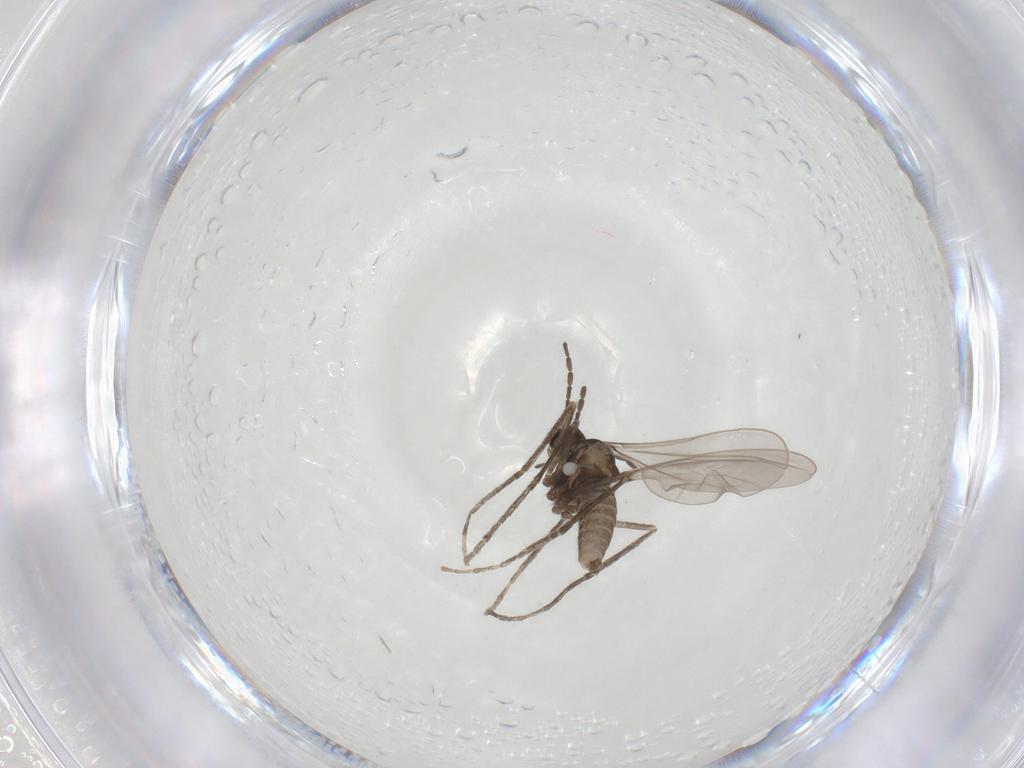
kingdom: Animalia
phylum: Arthropoda
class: Insecta
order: Diptera
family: Cecidomyiidae
